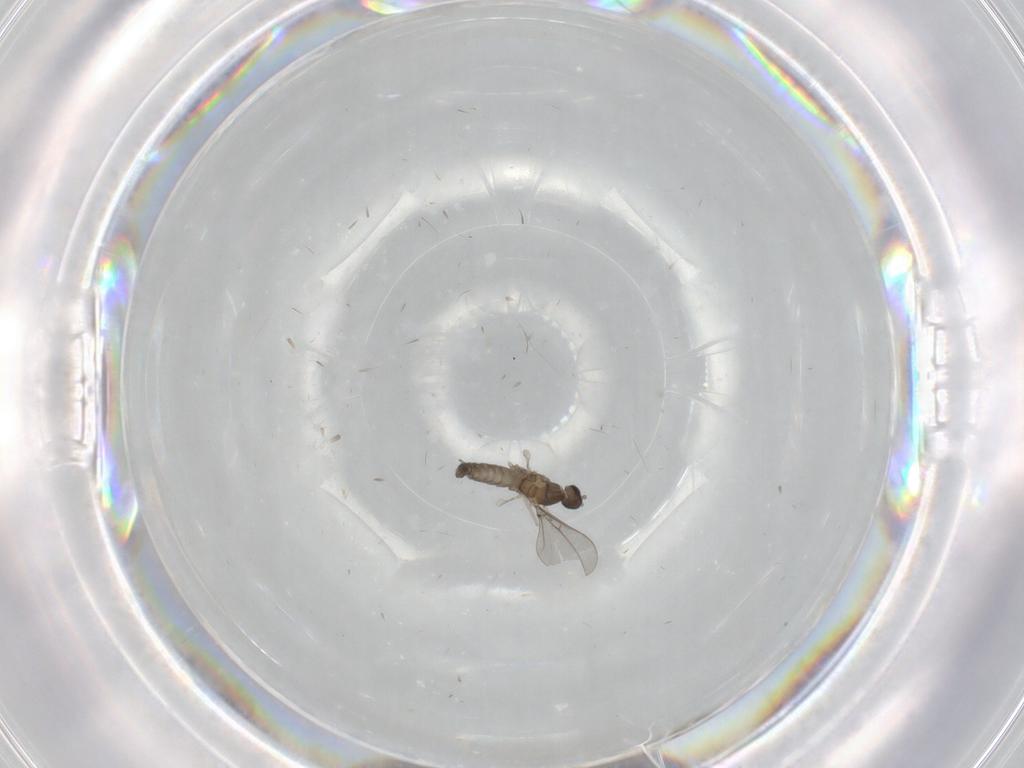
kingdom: Animalia
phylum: Arthropoda
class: Insecta
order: Diptera
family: Cecidomyiidae
